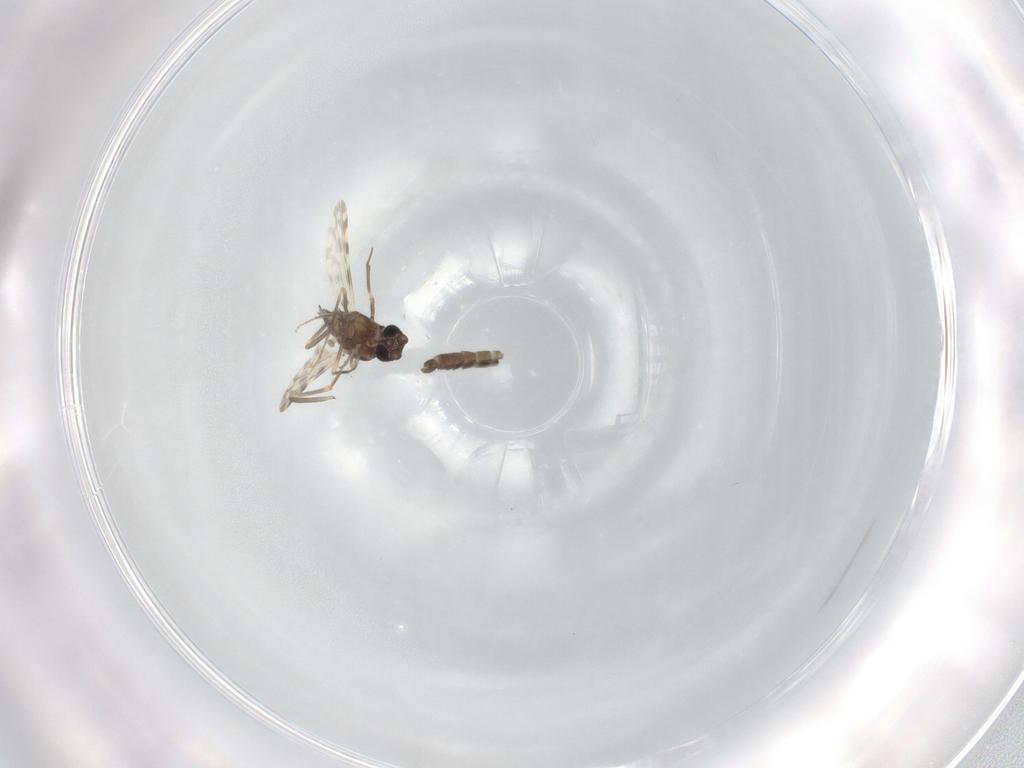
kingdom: Animalia
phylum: Arthropoda
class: Insecta
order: Diptera
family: Ceratopogonidae
